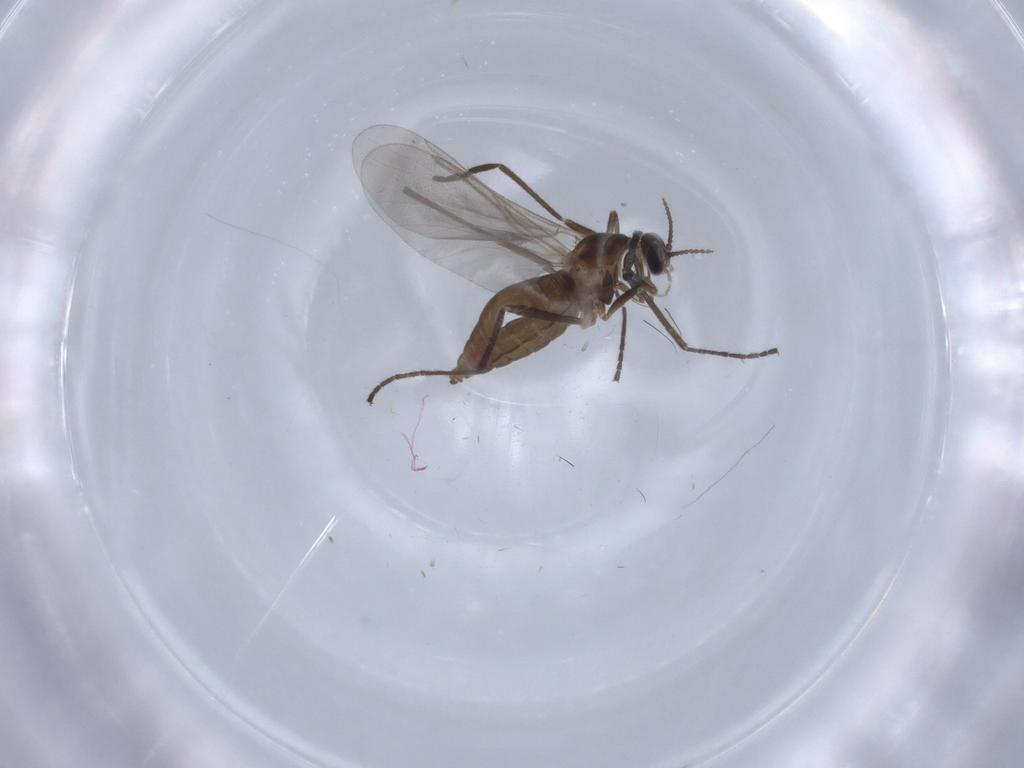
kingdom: Animalia
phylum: Arthropoda
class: Insecta
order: Diptera
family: Cecidomyiidae
